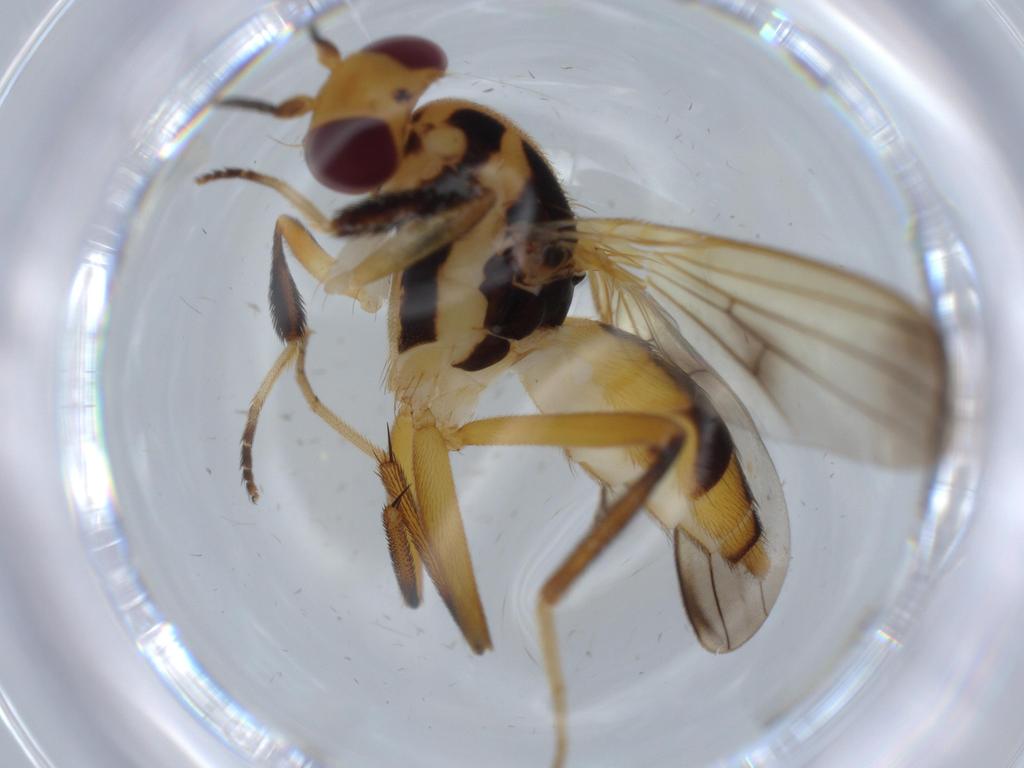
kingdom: Animalia
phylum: Arthropoda
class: Insecta
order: Diptera
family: Clusiidae
